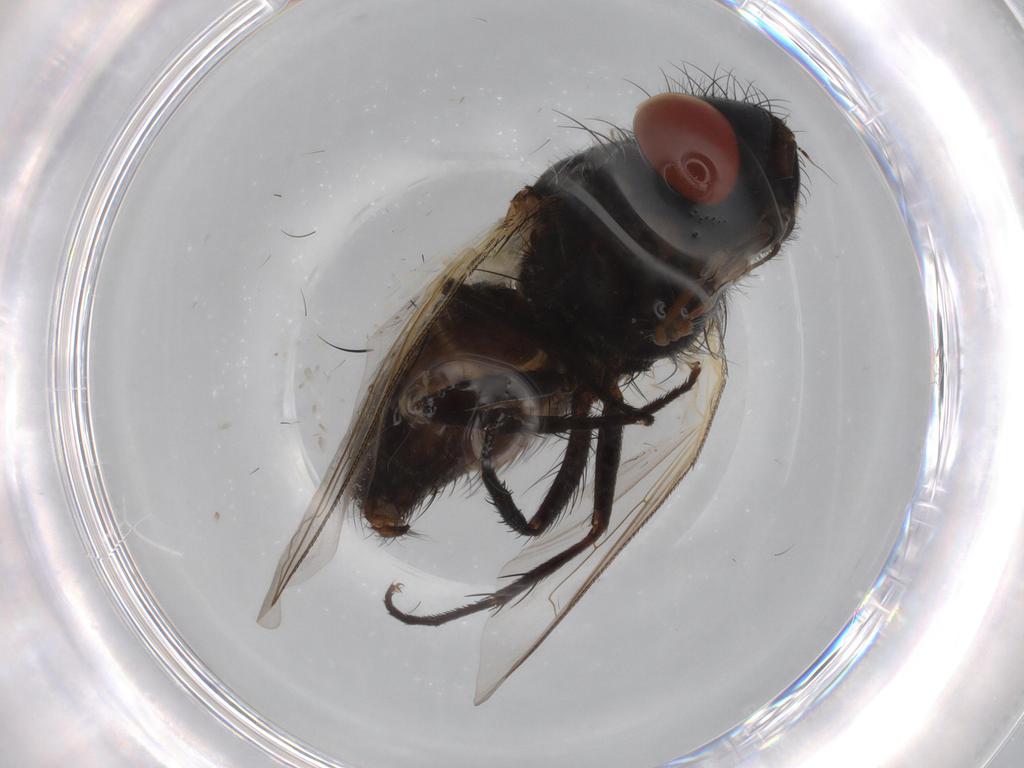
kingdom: Animalia
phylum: Arthropoda
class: Insecta
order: Diptera
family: Sarcophagidae
